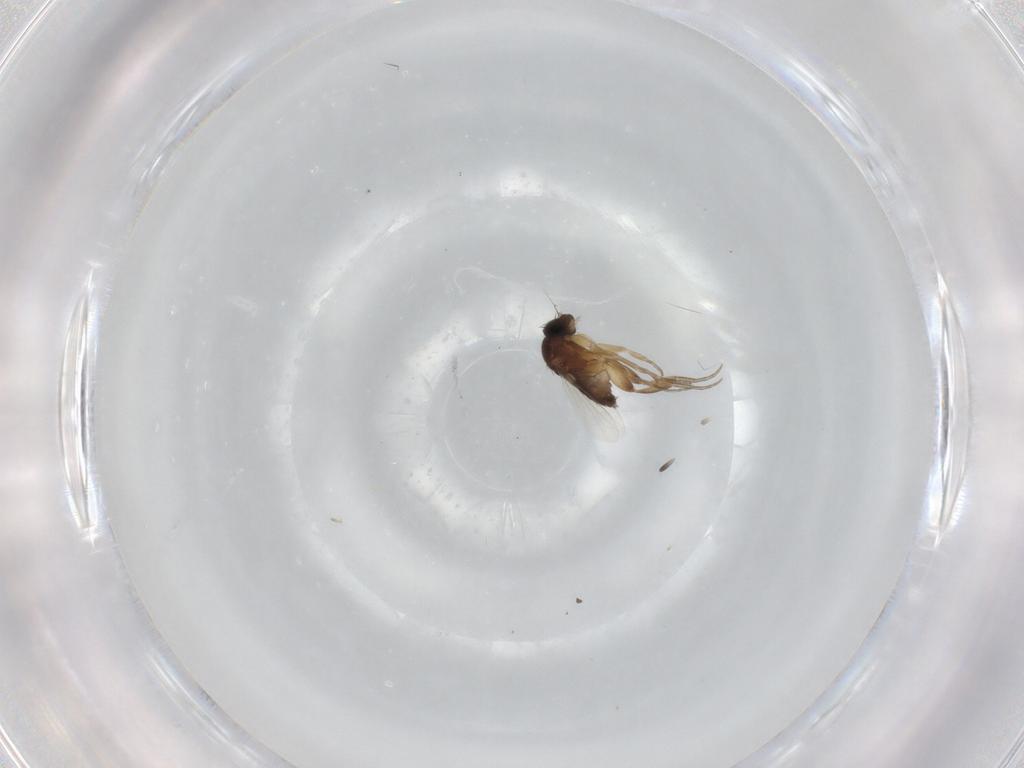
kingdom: Animalia
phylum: Arthropoda
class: Insecta
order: Diptera
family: Phoridae
